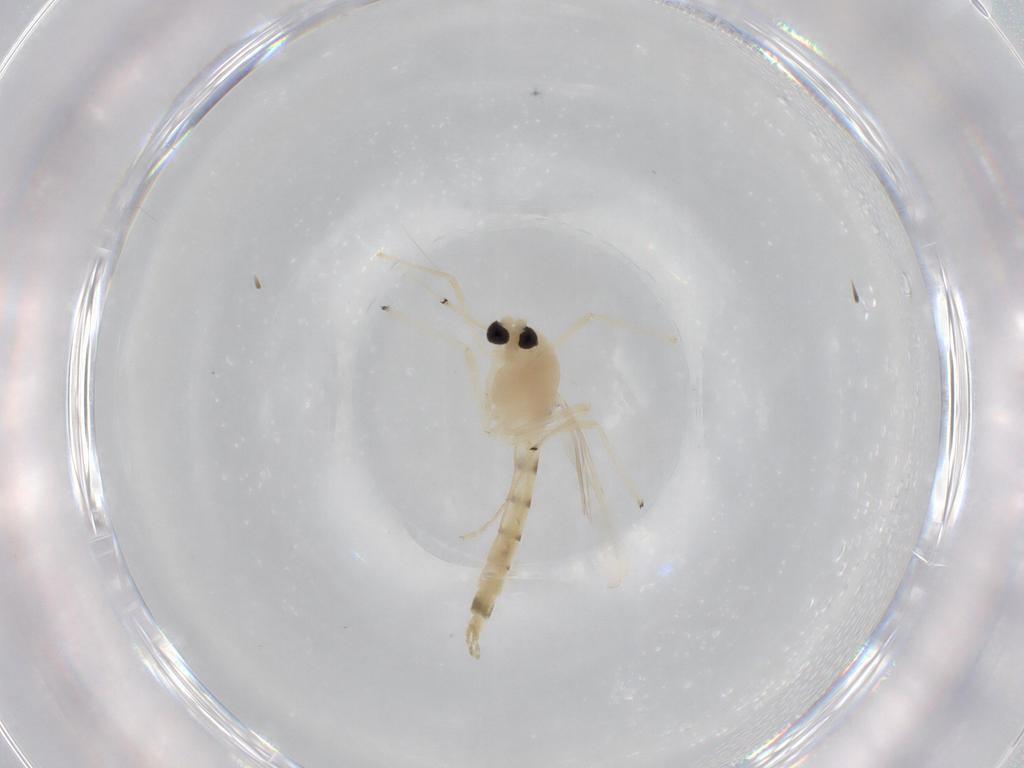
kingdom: Animalia
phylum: Arthropoda
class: Insecta
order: Diptera
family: Chironomidae
